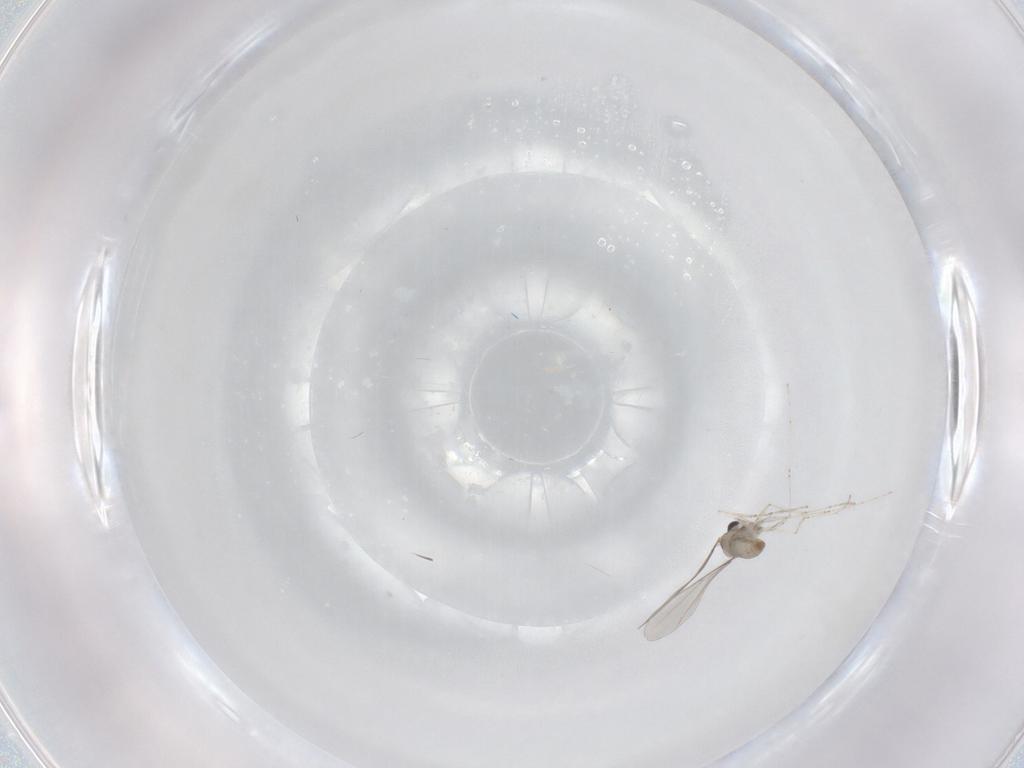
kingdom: Animalia
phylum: Arthropoda
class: Insecta
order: Diptera
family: Cecidomyiidae
